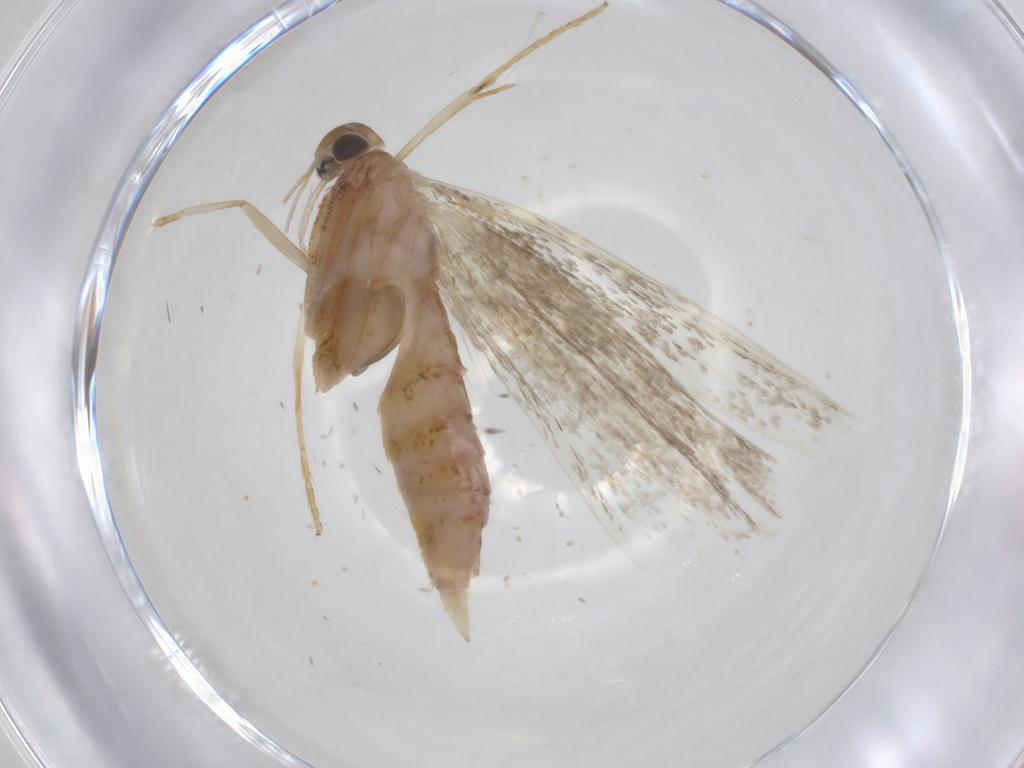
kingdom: Animalia
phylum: Arthropoda
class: Insecta
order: Lepidoptera
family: Crambidae
